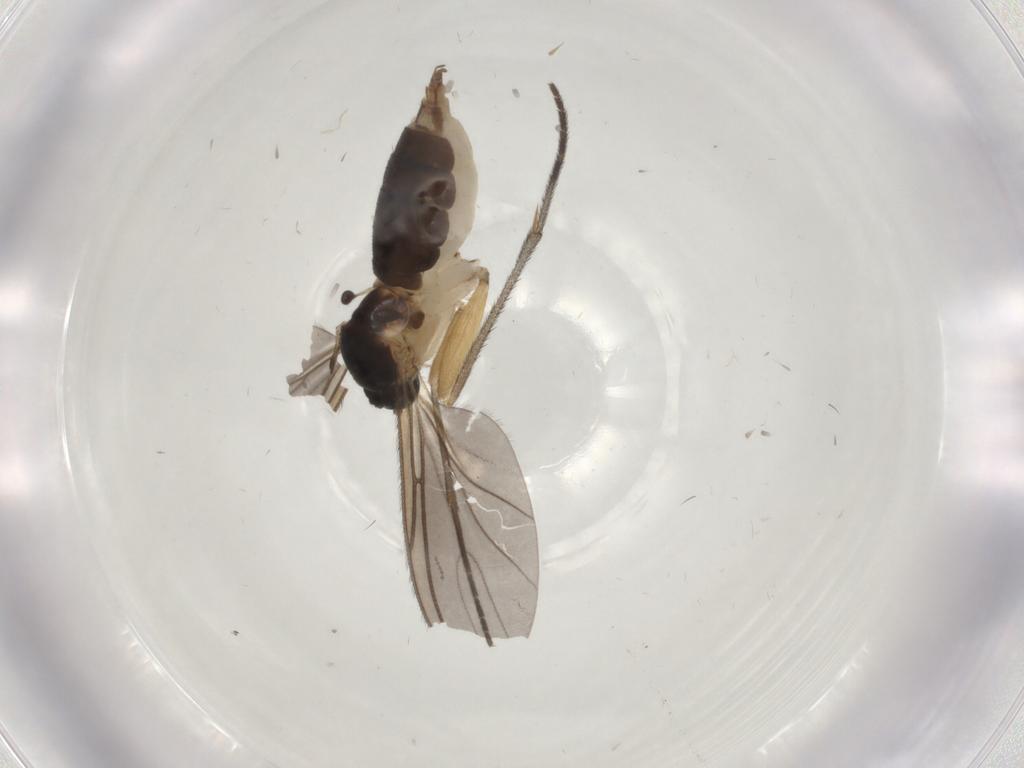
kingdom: Animalia
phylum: Arthropoda
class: Insecta
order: Diptera
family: Sciaridae
